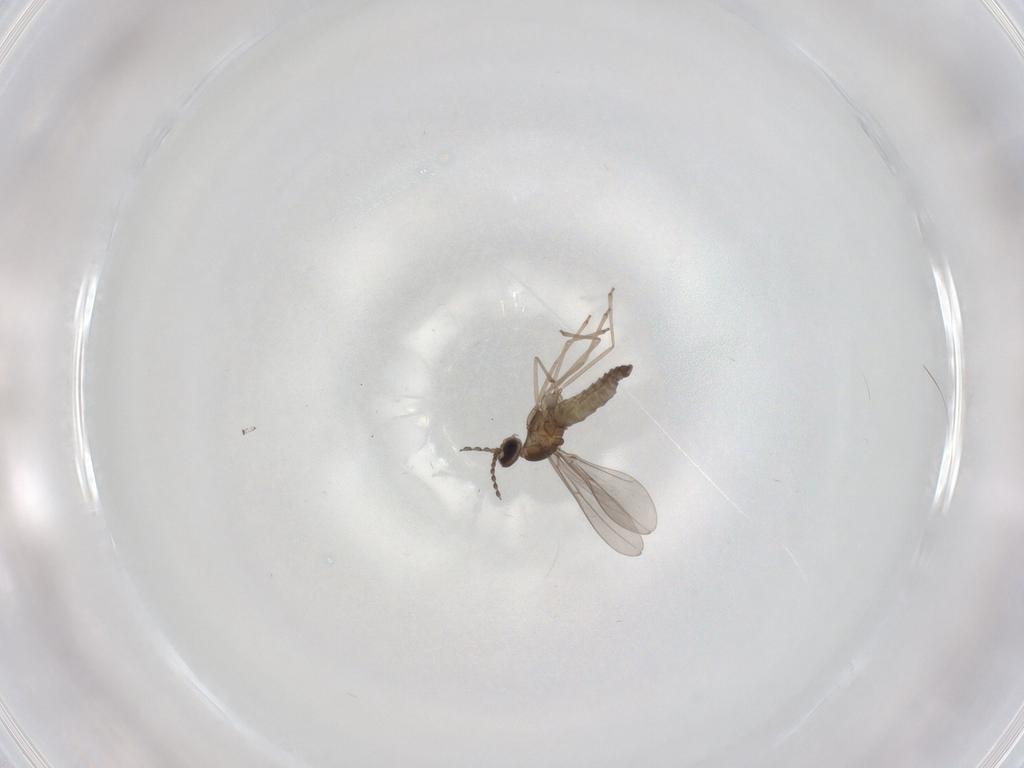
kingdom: Animalia
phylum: Arthropoda
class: Insecta
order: Diptera
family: Cecidomyiidae
